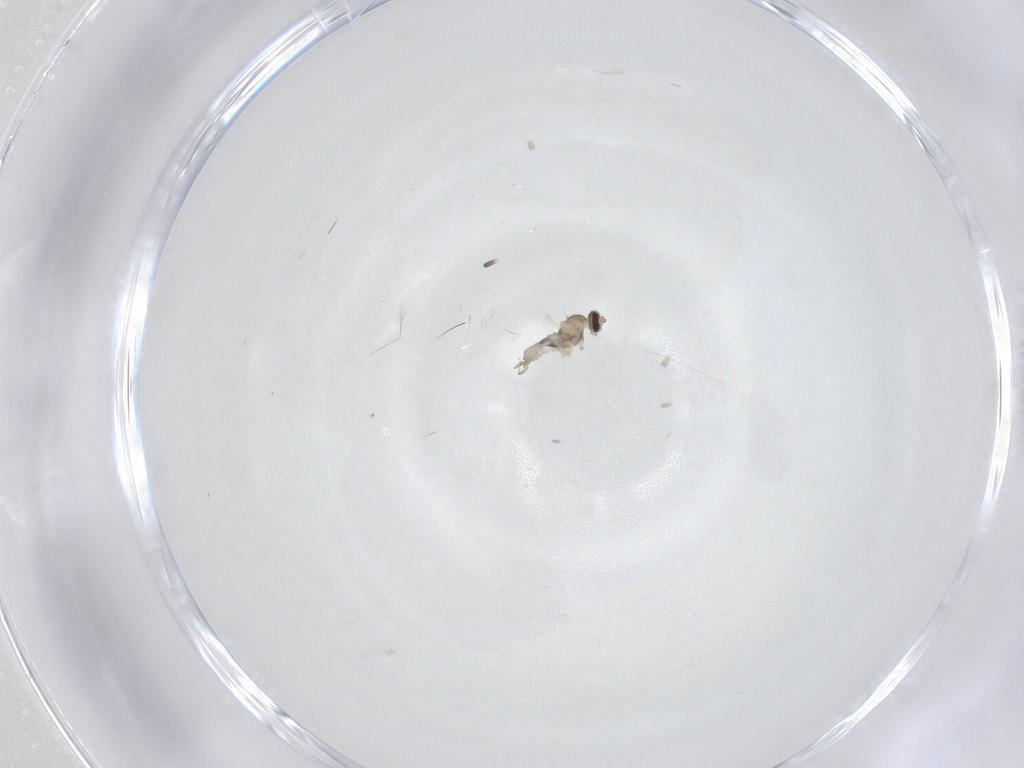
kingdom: Animalia
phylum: Arthropoda
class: Insecta
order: Diptera
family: Cecidomyiidae
